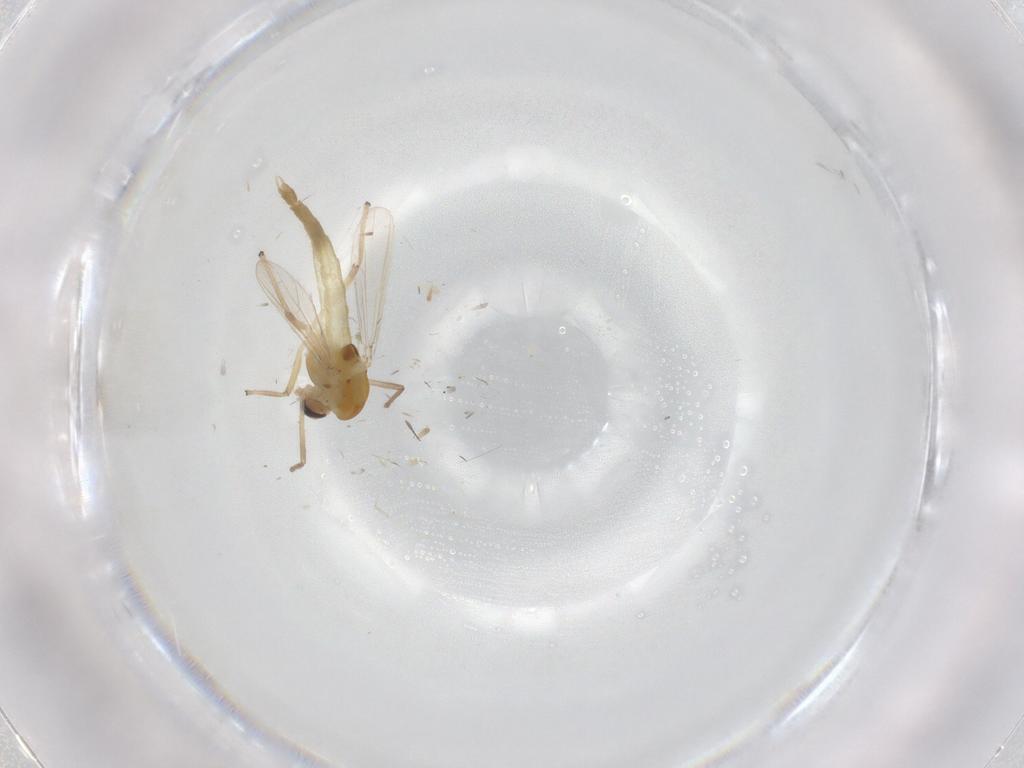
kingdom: Animalia
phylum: Arthropoda
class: Insecta
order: Diptera
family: Chironomidae
